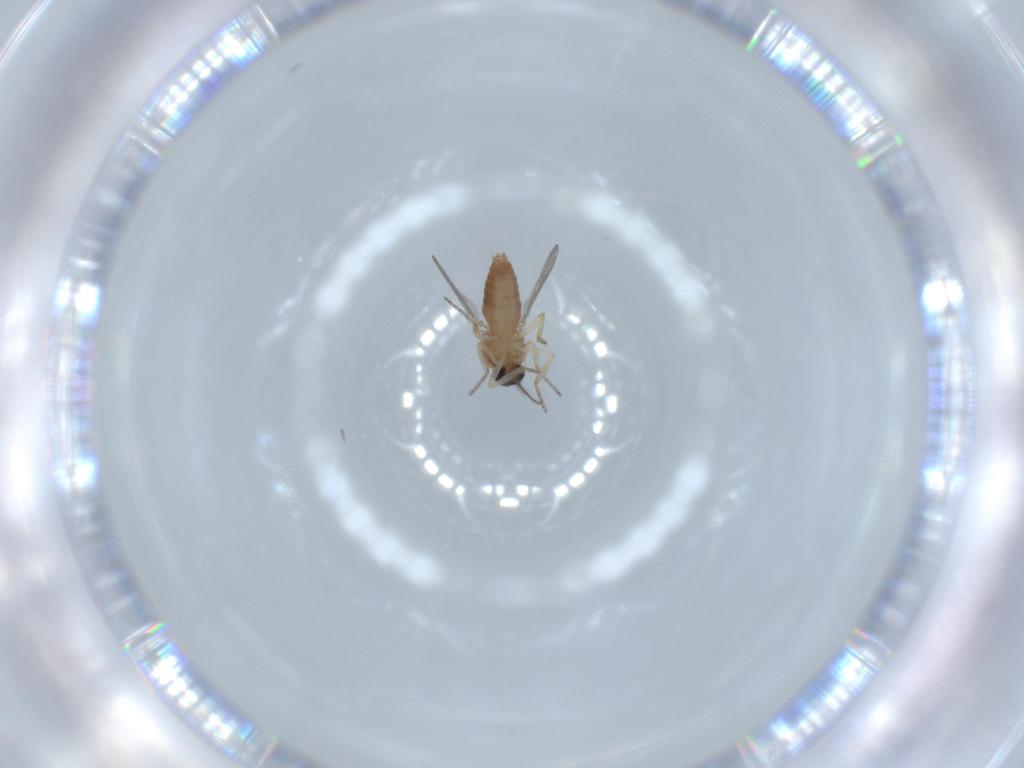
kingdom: Animalia
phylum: Arthropoda
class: Insecta
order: Diptera
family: Ceratopogonidae
